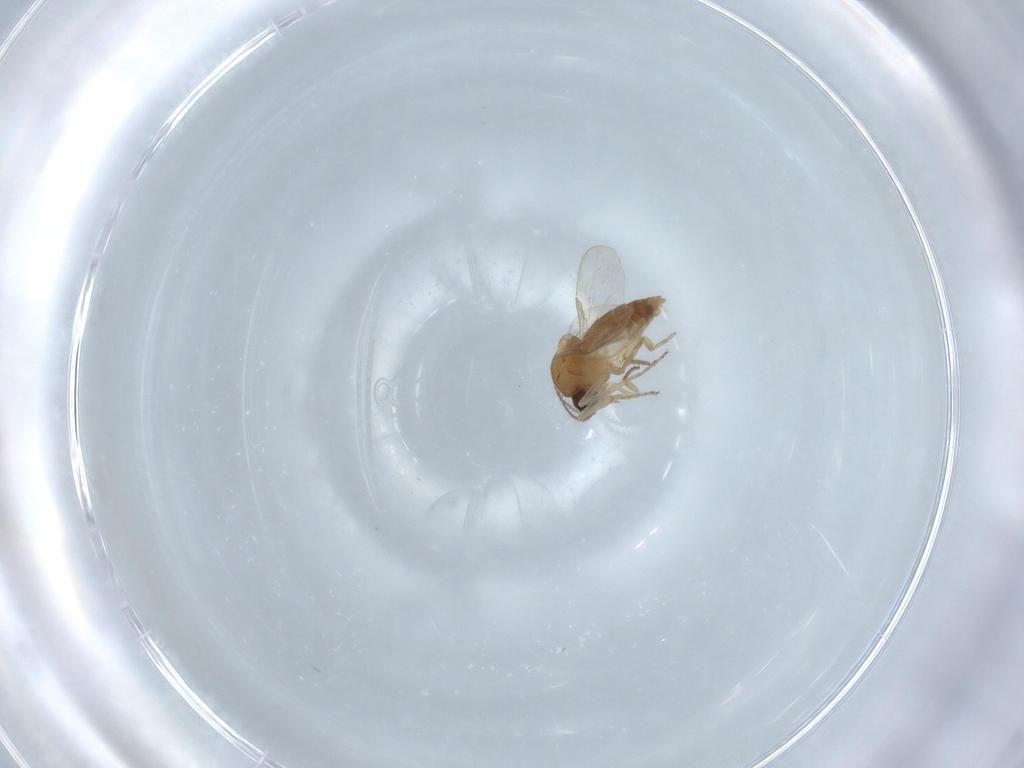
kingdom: Animalia
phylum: Arthropoda
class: Insecta
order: Diptera
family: Ceratopogonidae
